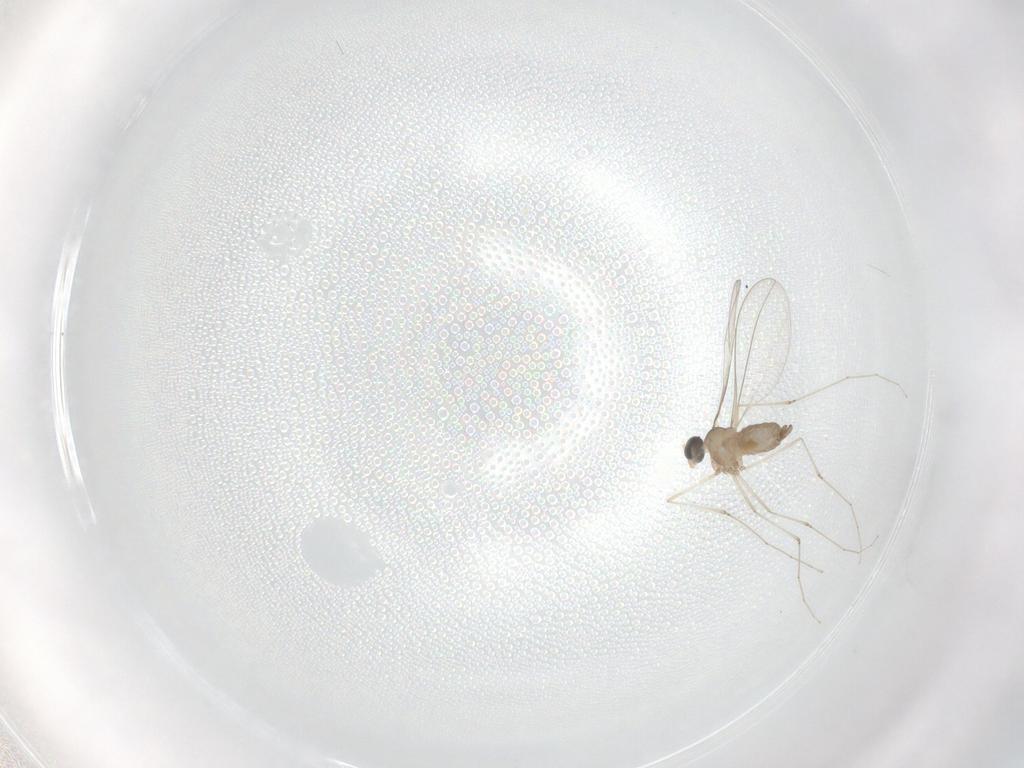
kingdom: Animalia
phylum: Arthropoda
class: Insecta
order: Diptera
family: Cecidomyiidae
